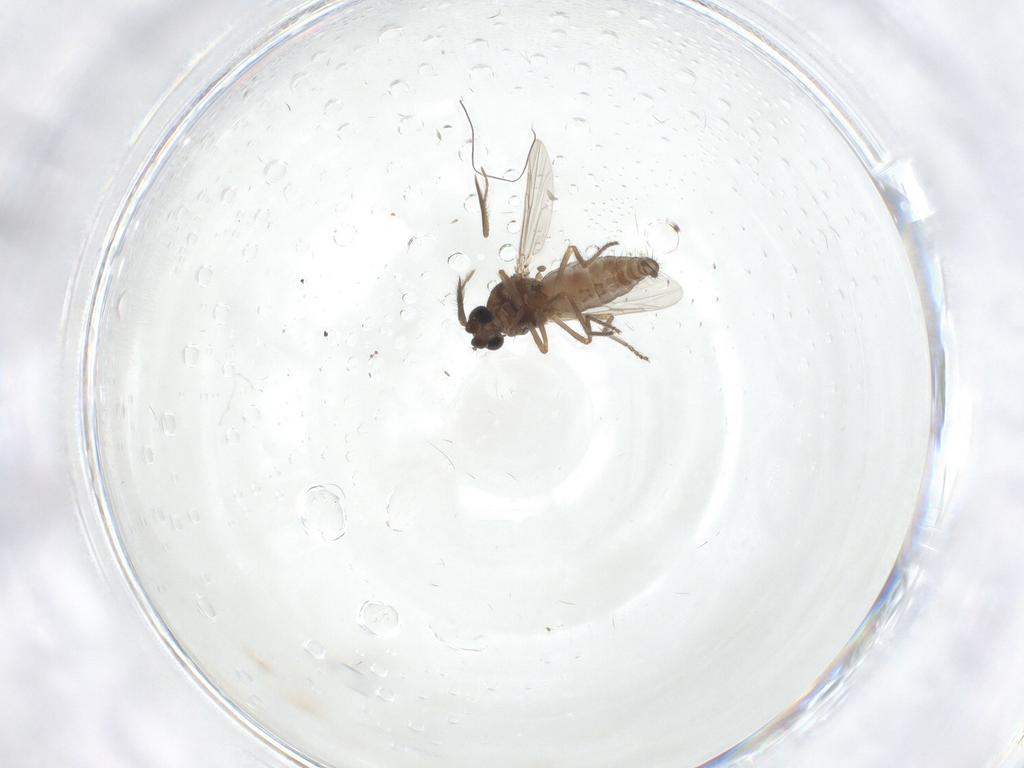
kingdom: Animalia
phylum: Arthropoda
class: Insecta
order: Diptera
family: Ceratopogonidae
